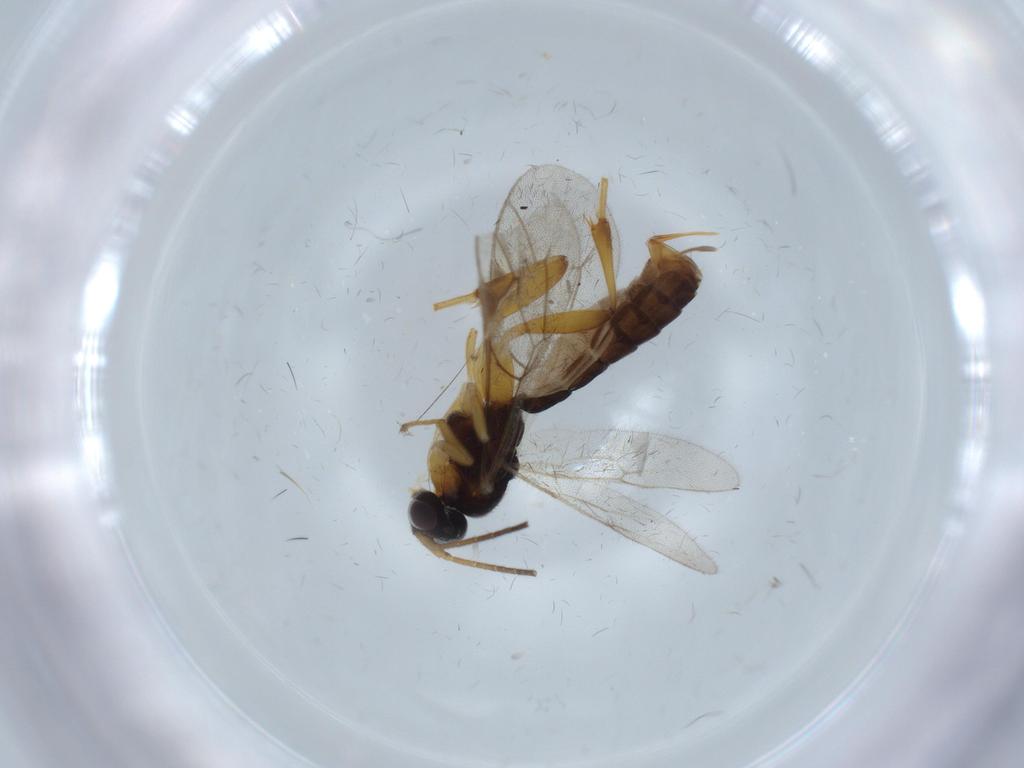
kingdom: Animalia
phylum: Arthropoda
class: Insecta
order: Hymenoptera
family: Ichneumonidae
